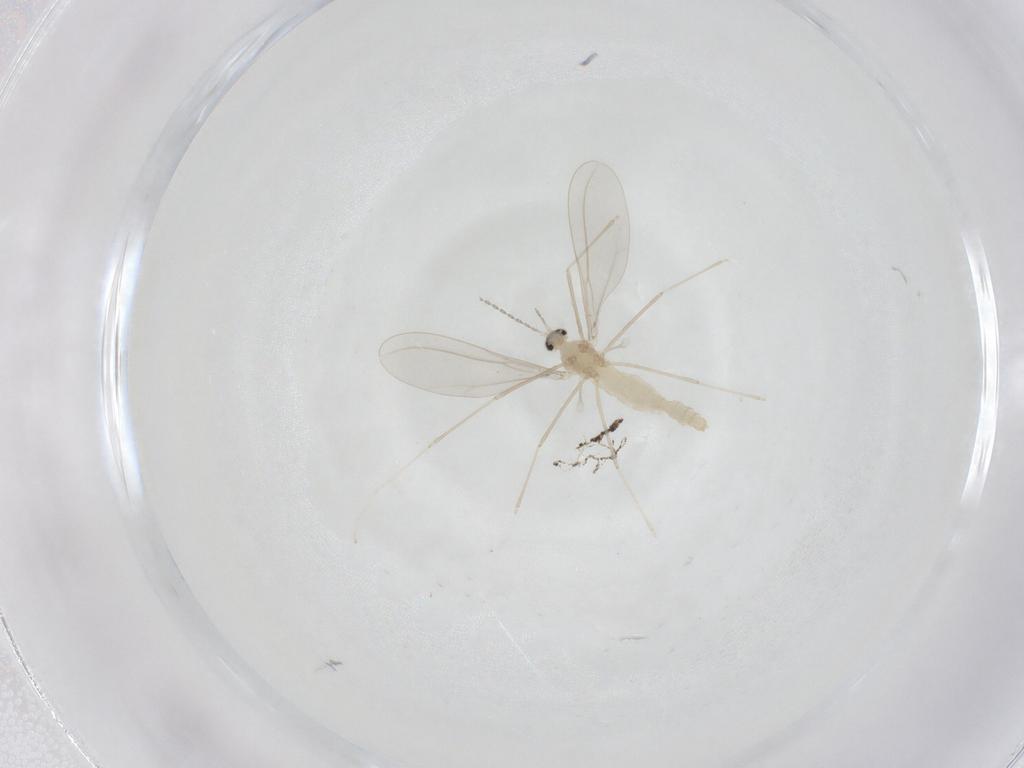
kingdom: Animalia
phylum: Arthropoda
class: Insecta
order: Diptera
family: Cecidomyiidae
